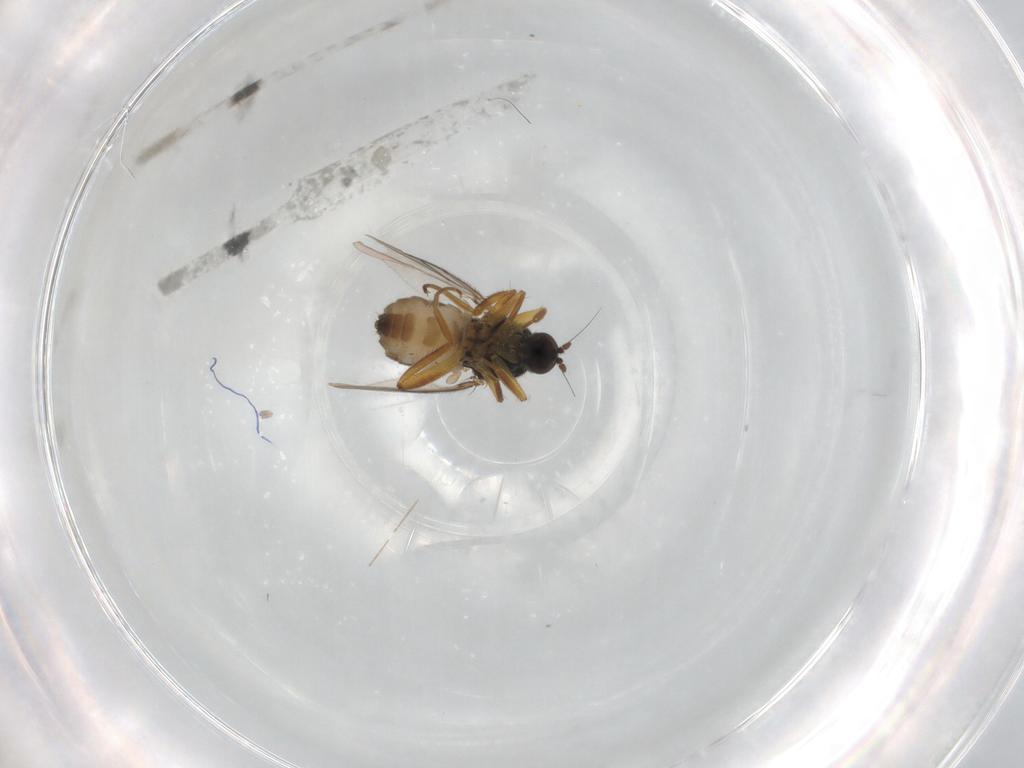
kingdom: Animalia
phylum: Arthropoda
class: Insecta
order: Diptera
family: Hybotidae
